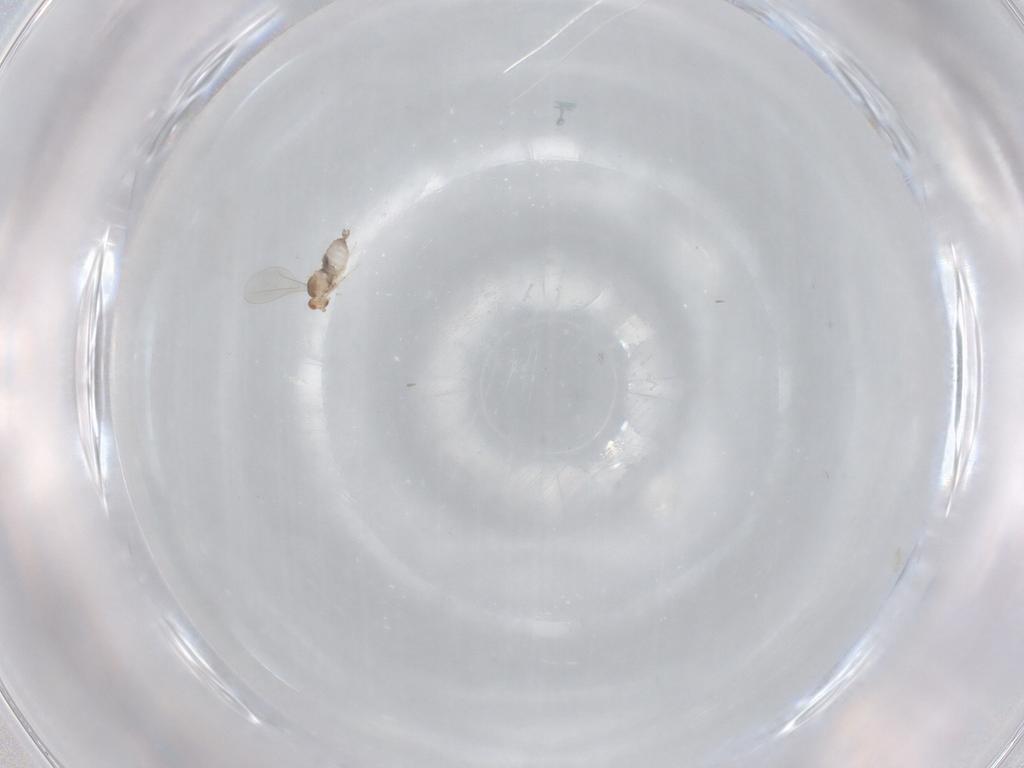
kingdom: Animalia
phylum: Arthropoda
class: Insecta
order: Diptera
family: Cecidomyiidae
